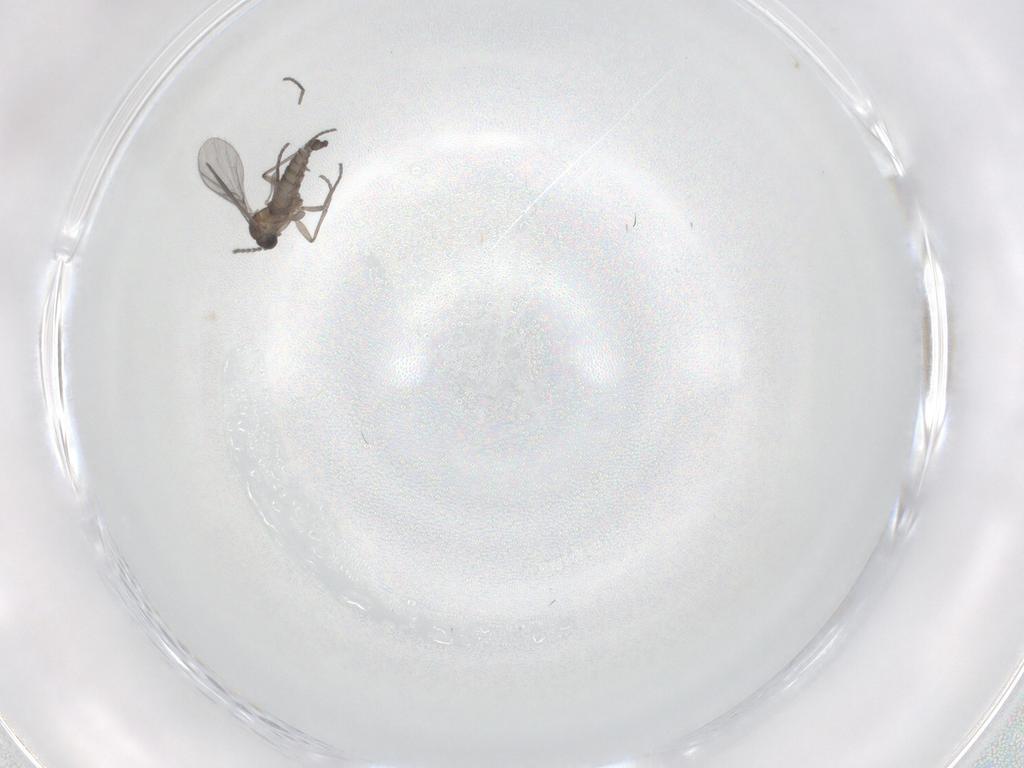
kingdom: Animalia
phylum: Arthropoda
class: Insecta
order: Diptera
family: Sciaridae
